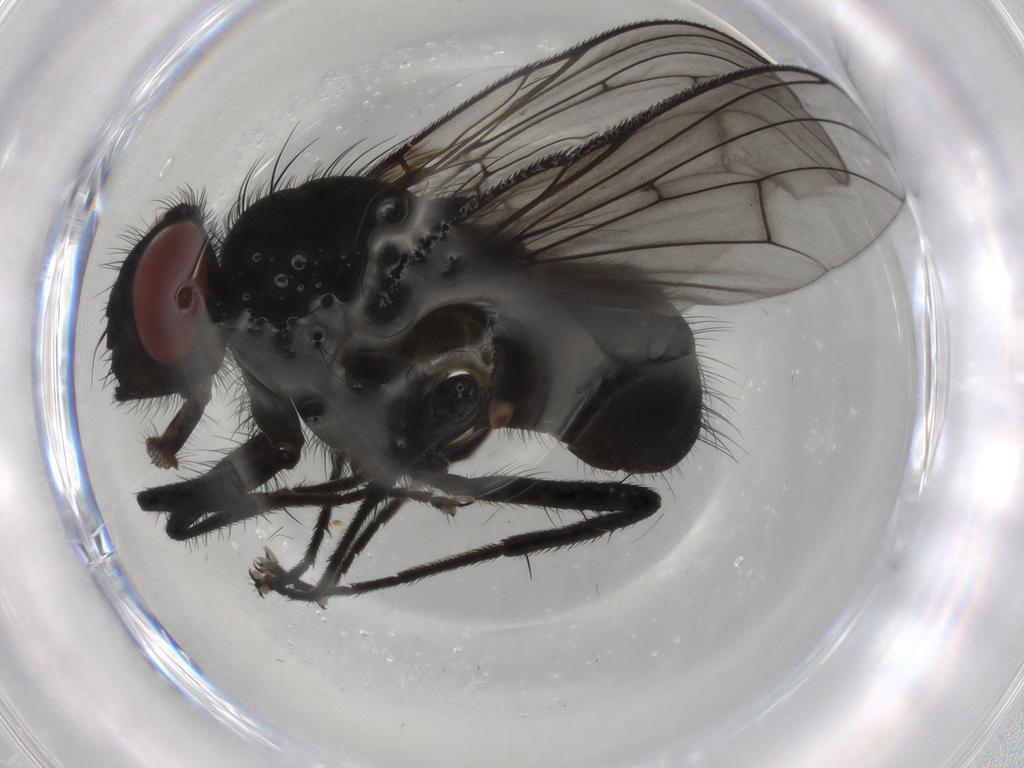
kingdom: Animalia
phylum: Arthropoda
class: Insecta
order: Diptera
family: Muscidae
